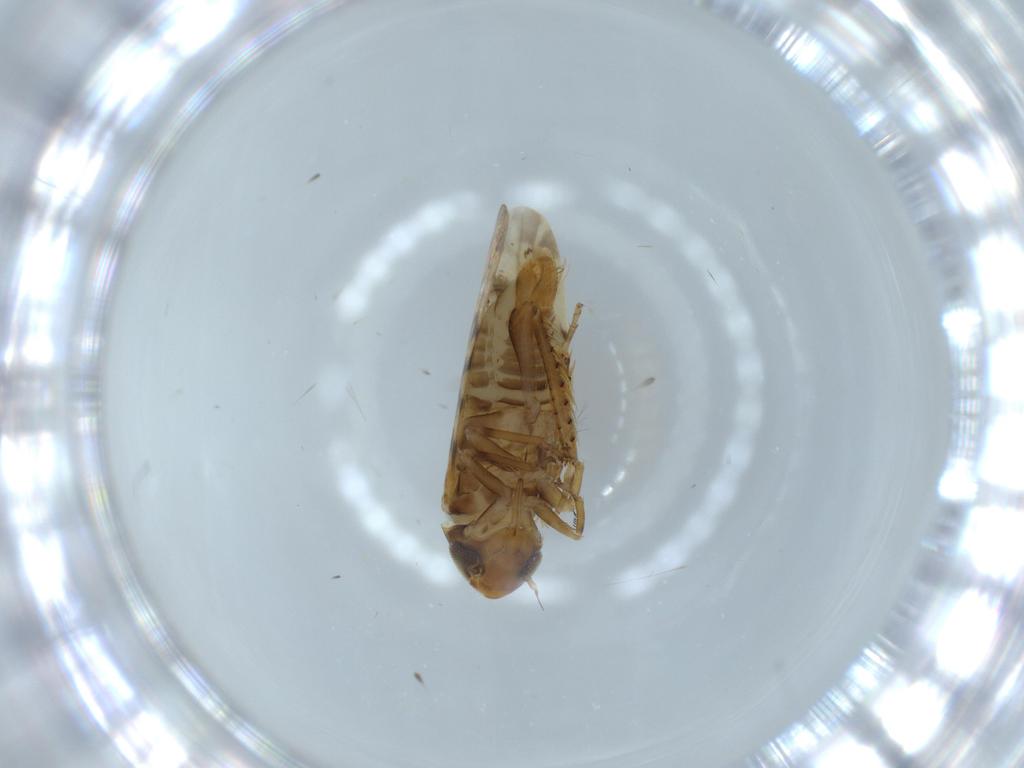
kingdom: Animalia
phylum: Arthropoda
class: Insecta
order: Hemiptera
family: Cicadellidae
